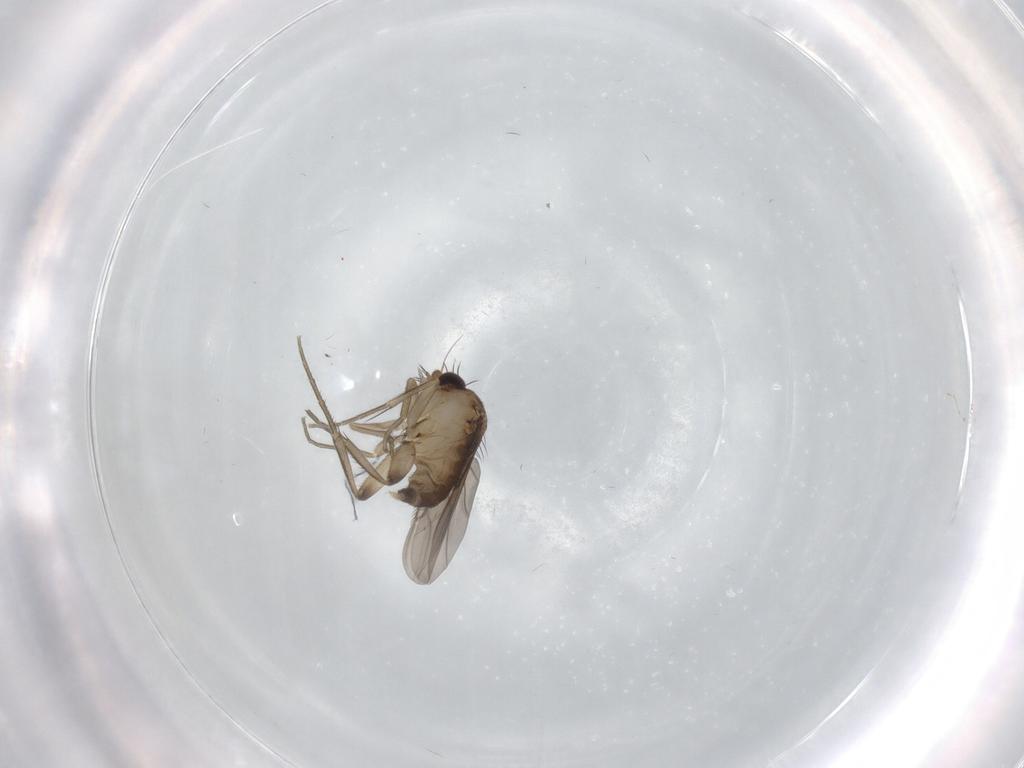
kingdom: Animalia
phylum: Arthropoda
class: Insecta
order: Diptera
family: Phoridae
